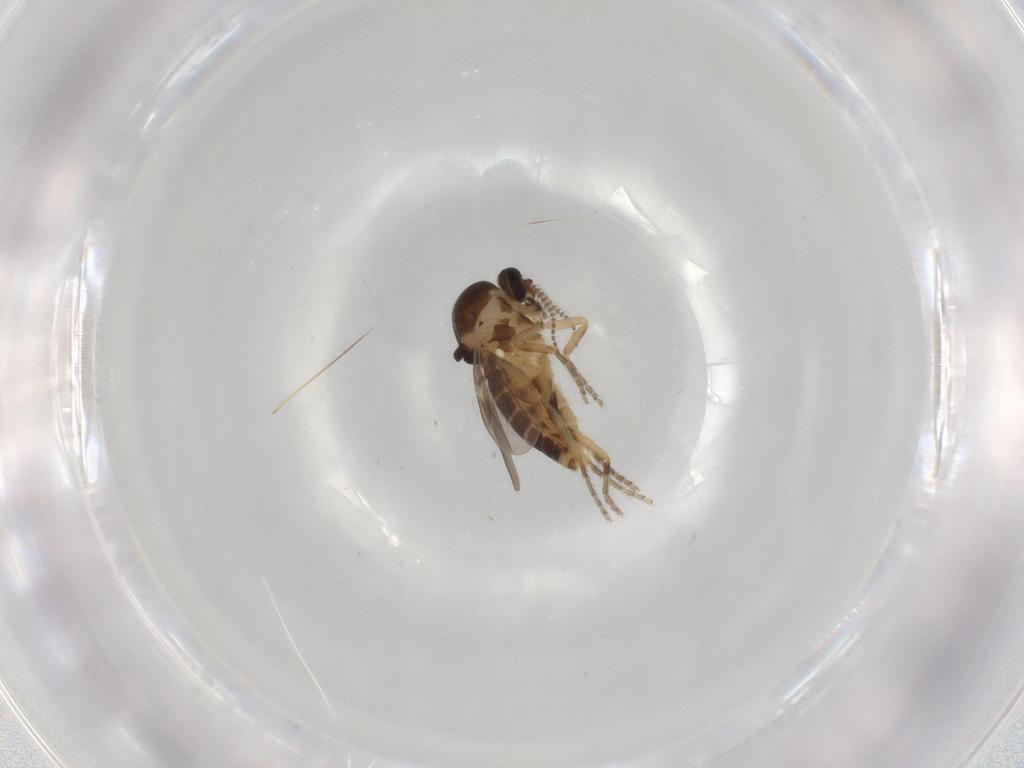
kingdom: Animalia
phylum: Arthropoda
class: Insecta
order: Diptera
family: Ceratopogonidae
